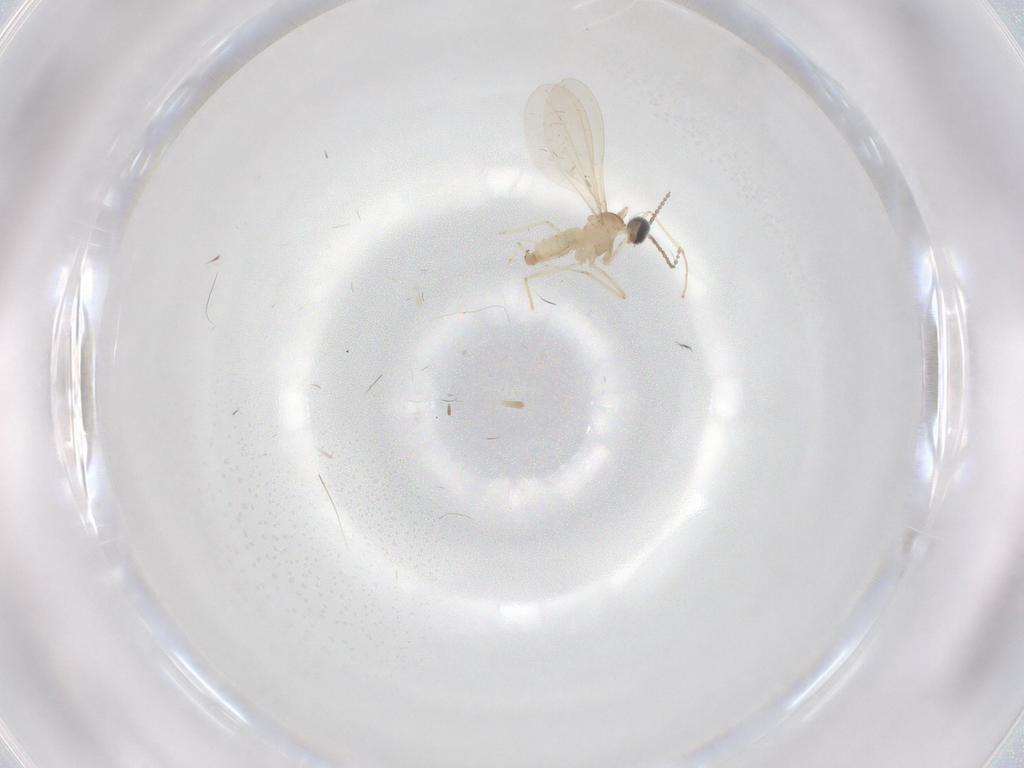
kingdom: Animalia
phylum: Arthropoda
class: Insecta
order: Diptera
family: Cecidomyiidae
